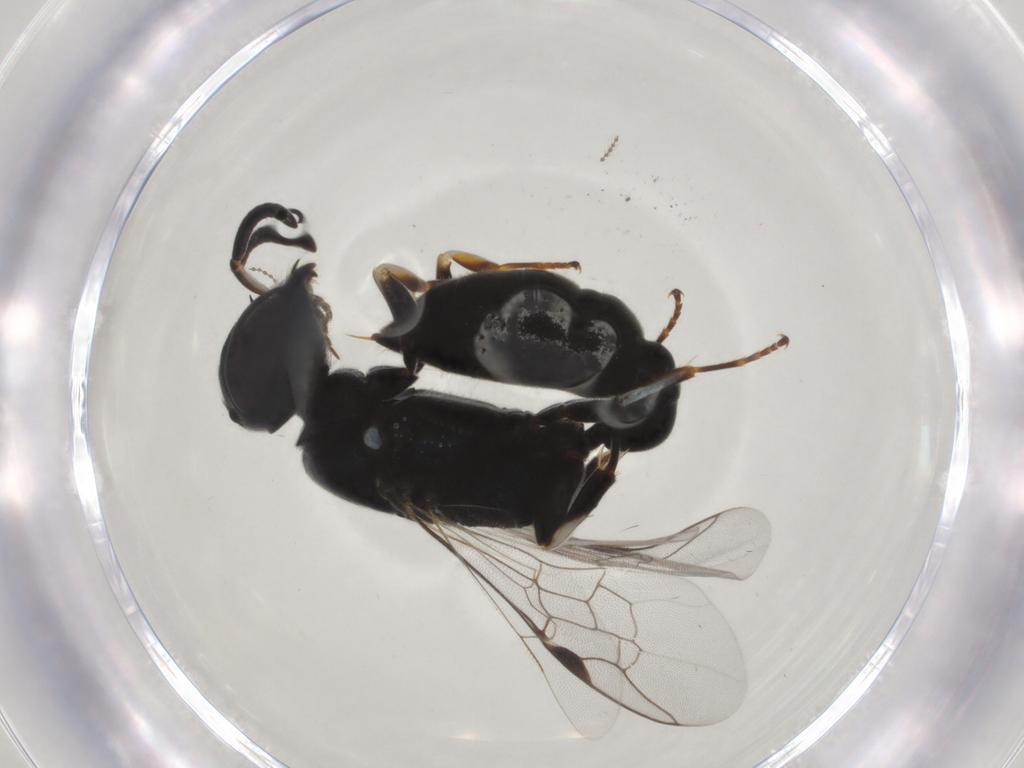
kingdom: Animalia
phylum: Arthropoda
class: Insecta
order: Hymenoptera
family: Pemphredonidae
